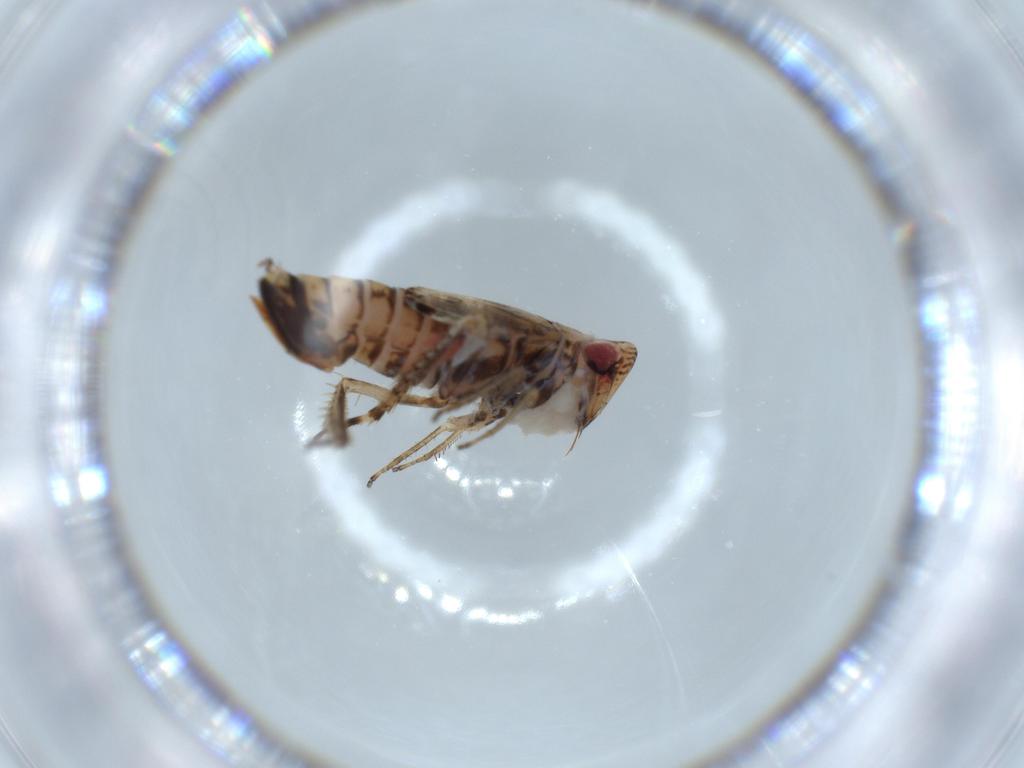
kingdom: Animalia
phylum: Arthropoda
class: Insecta
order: Hemiptera
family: Cicadellidae
